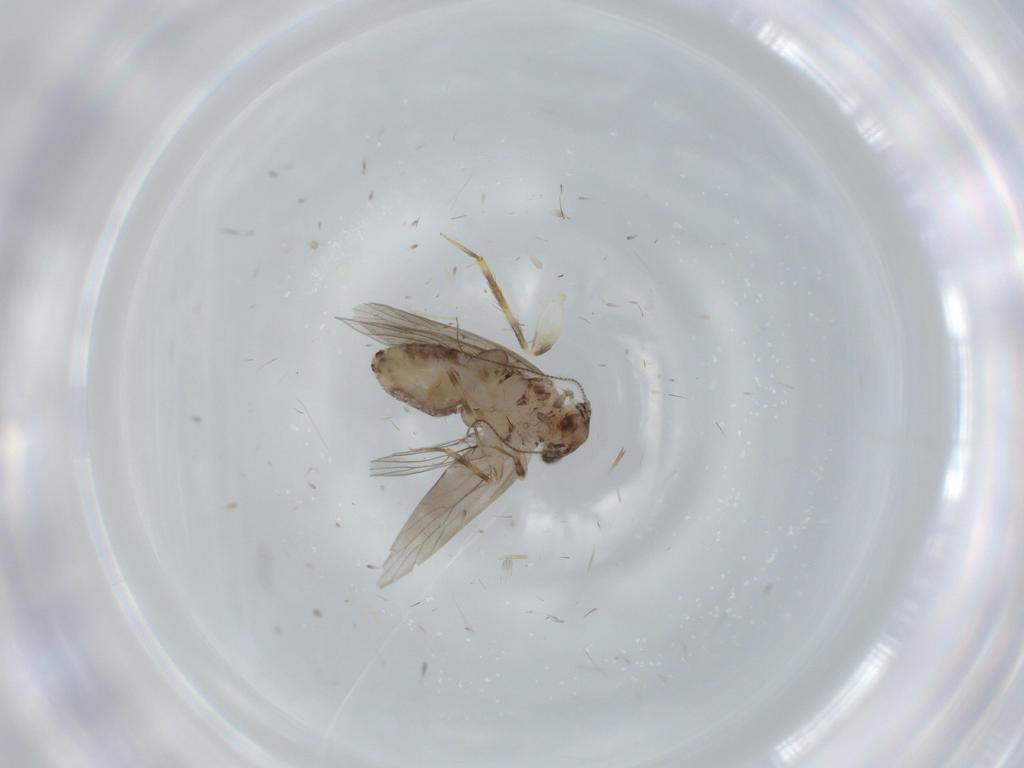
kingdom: Animalia
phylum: Arthropoda
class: Insecta
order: Psocodea
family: Lepidopsocidae
